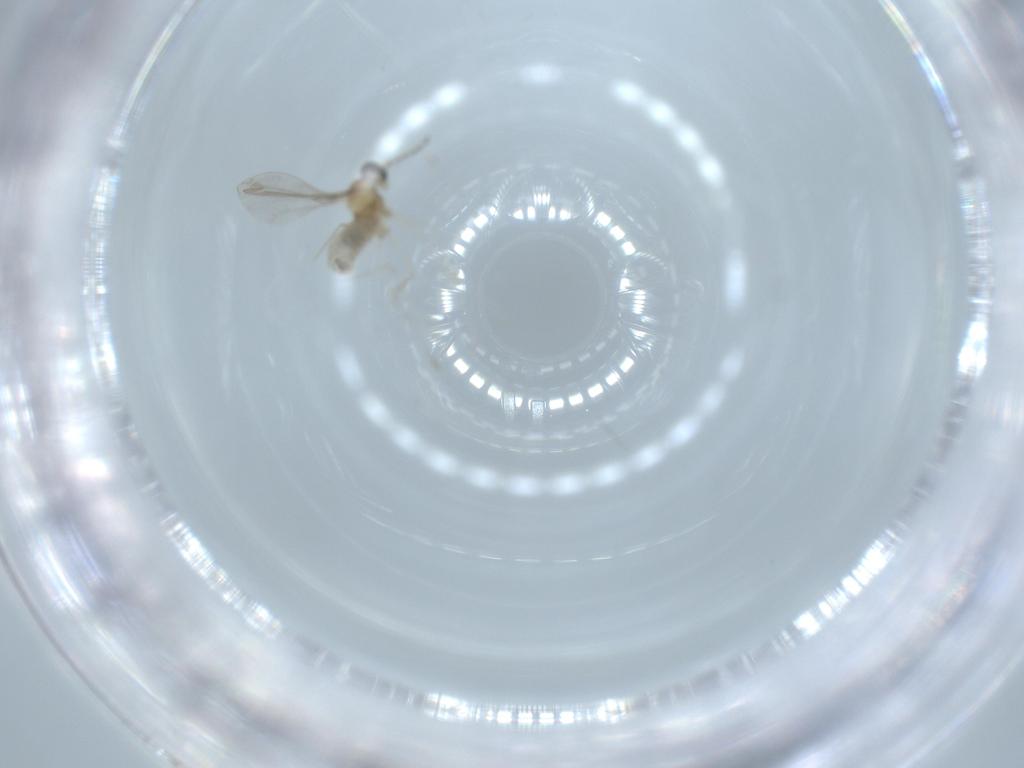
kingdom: Animalia
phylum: Arthropoda
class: Insecta
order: Diptera
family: Cecidomyiidae
